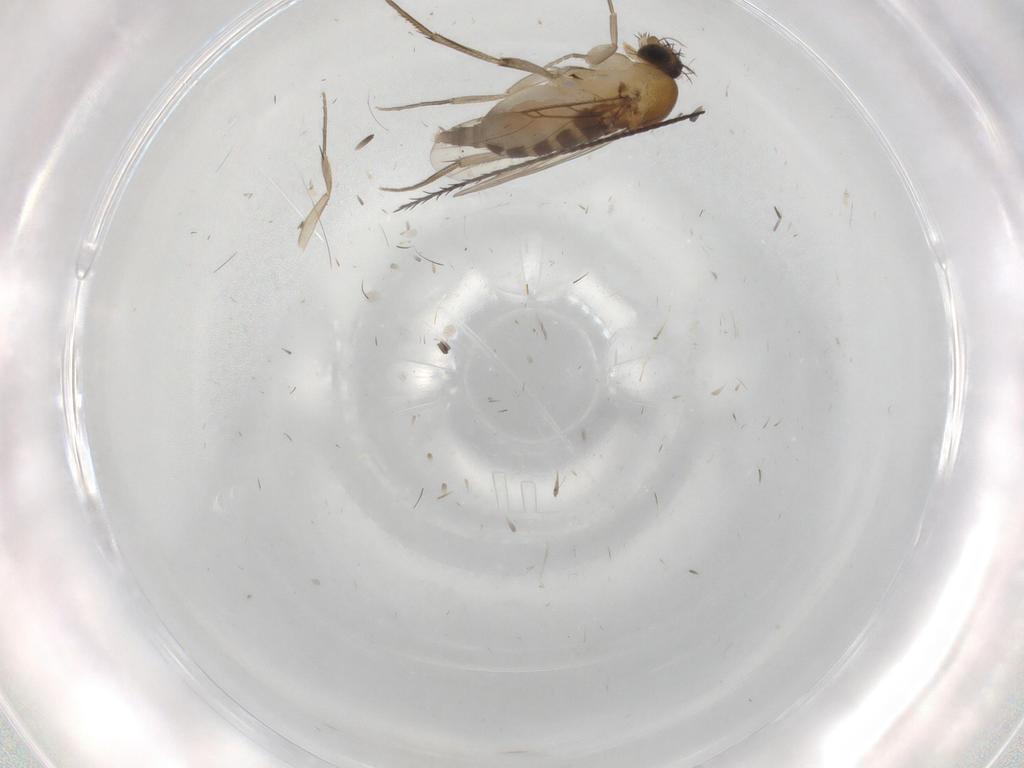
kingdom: Animalia
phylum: Arthropoda
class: Insecta
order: Diptera
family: Phoridae
